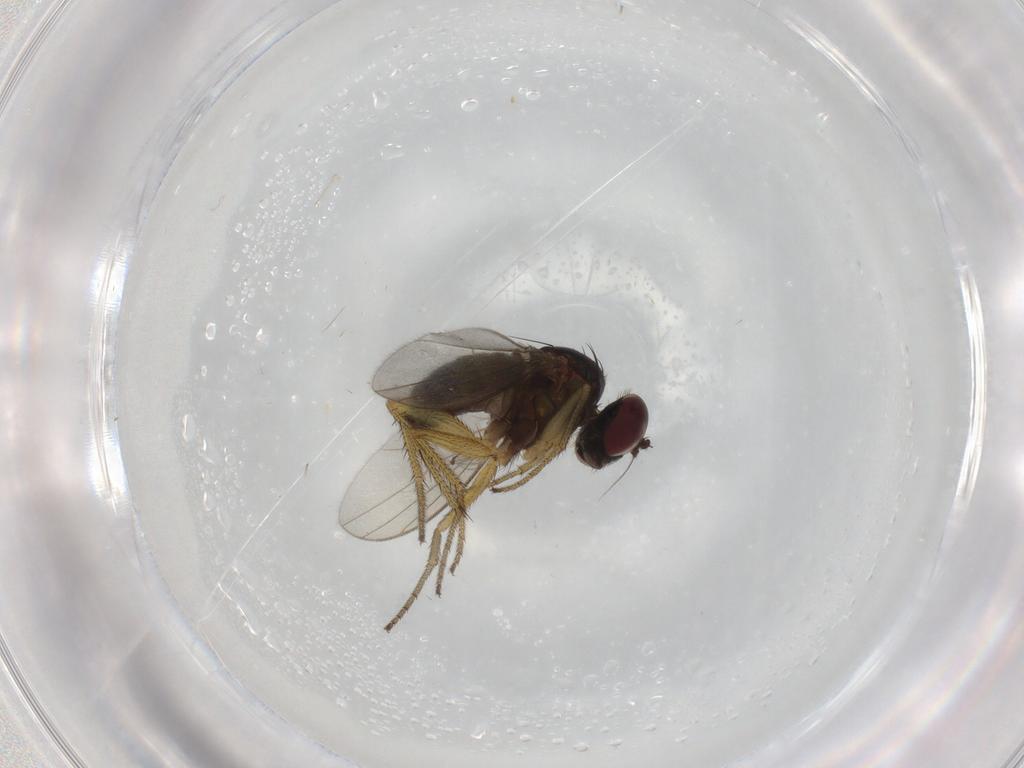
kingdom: Animalia
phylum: Arthropoda
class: Insecta
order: Diptera
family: Dolichopodidae
